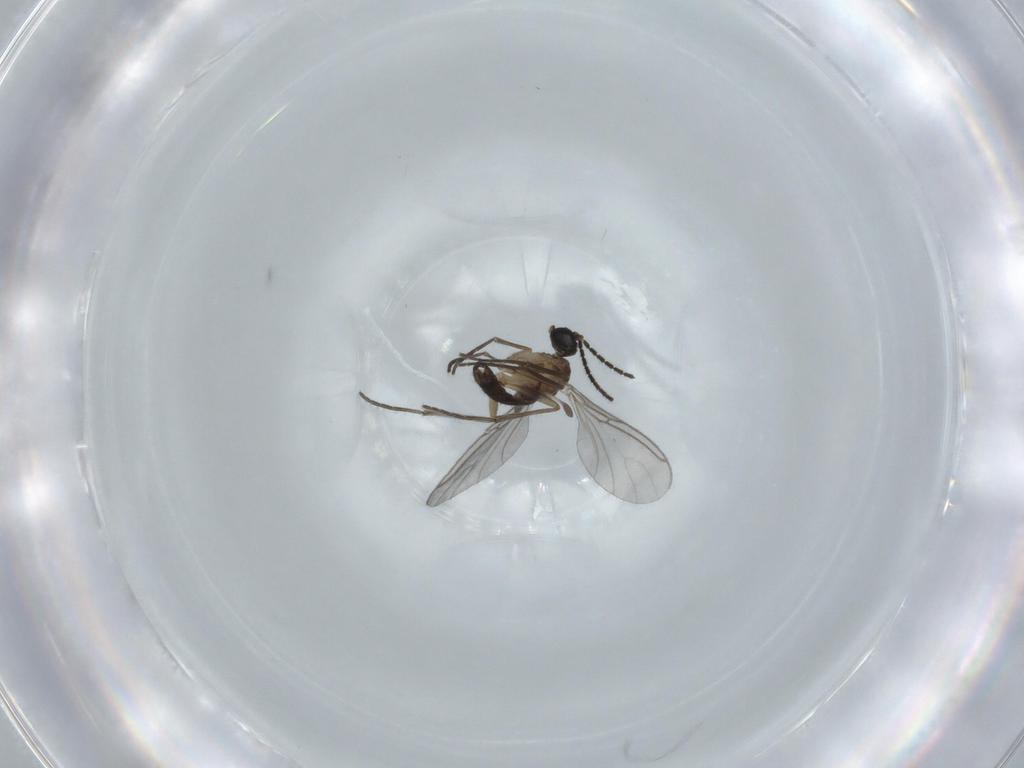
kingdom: Animalia
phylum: Arthropoda
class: Insecta
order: Diptera
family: Sciaridae
